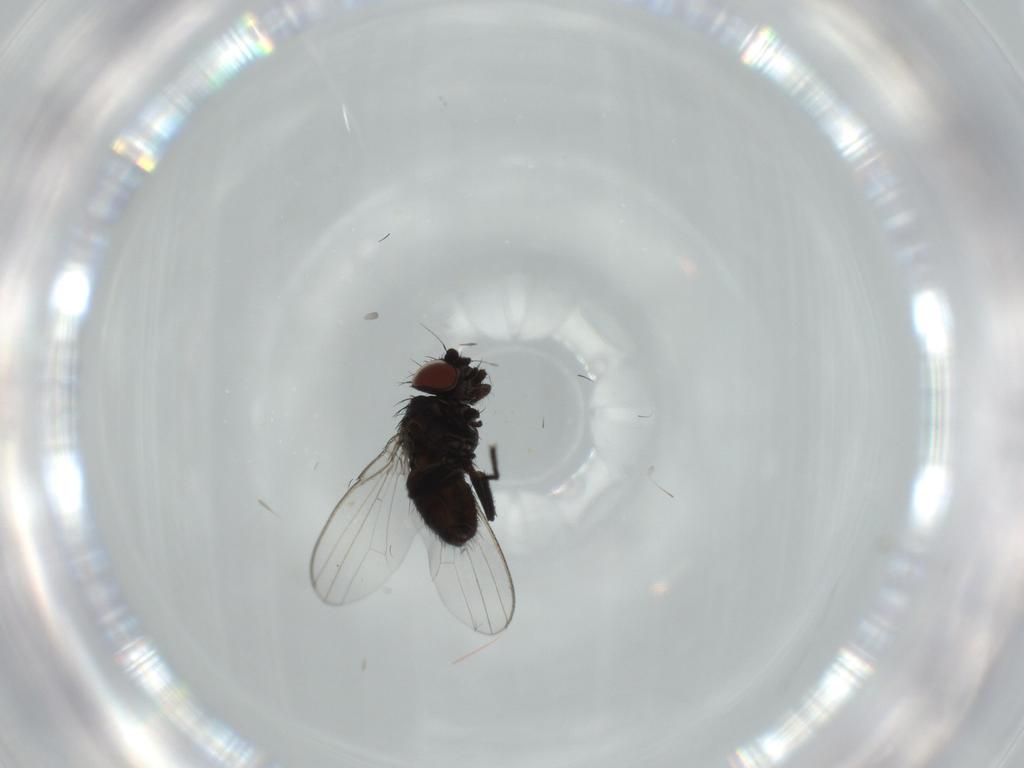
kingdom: Animalia
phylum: Arthropoda
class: Insecta
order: Diptera
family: Milichiidae
